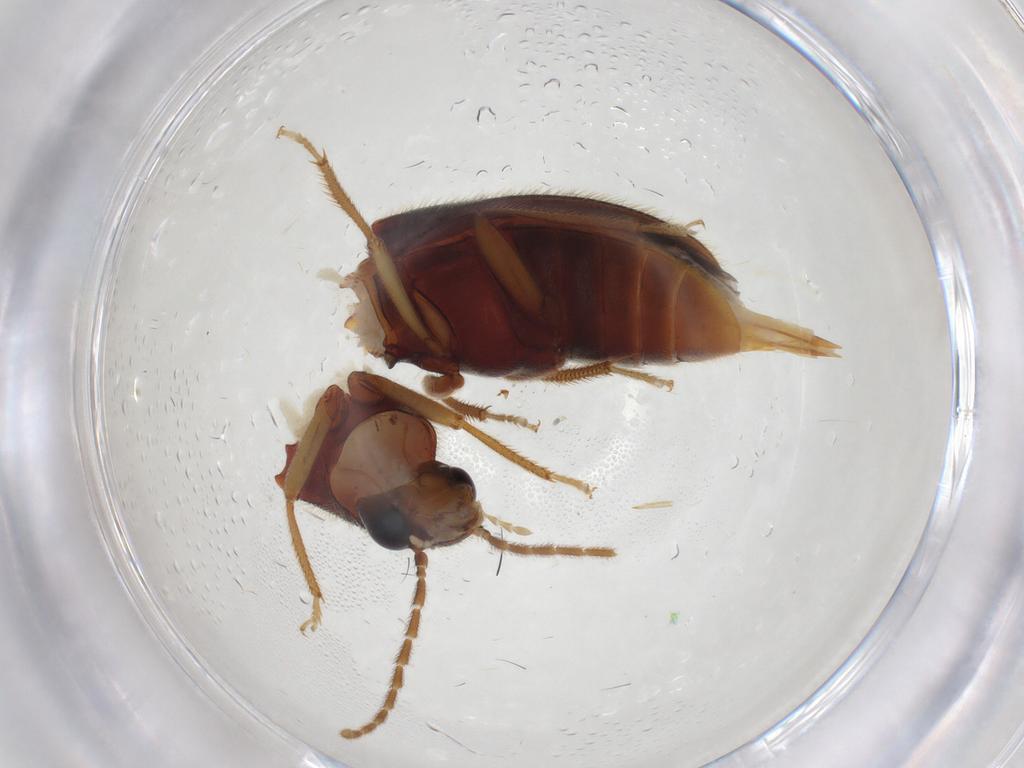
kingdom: Animalia
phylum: Arthropoda
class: Insecta
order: Coleoptera
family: Ptilodactylidae
